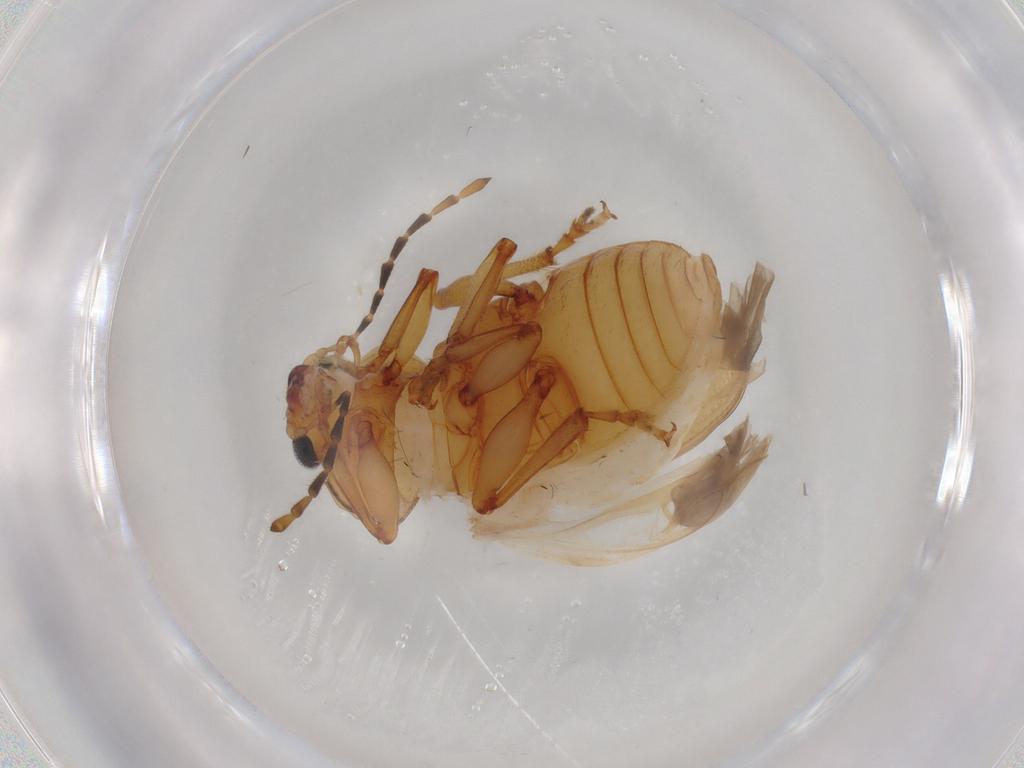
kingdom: Animalia
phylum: Arthropoda
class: Insecta
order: Coleoptera
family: Chrysomelidae
